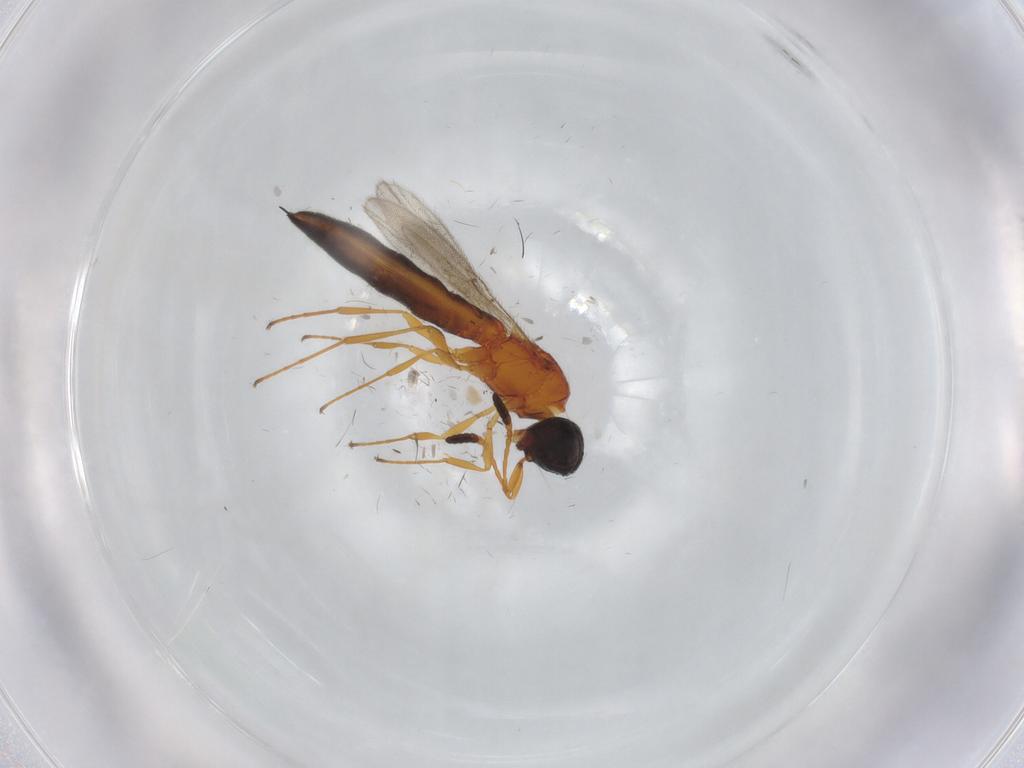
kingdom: Animalia
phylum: Arthropoda
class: Insecta
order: Hymenoptera
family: Scelionidae
